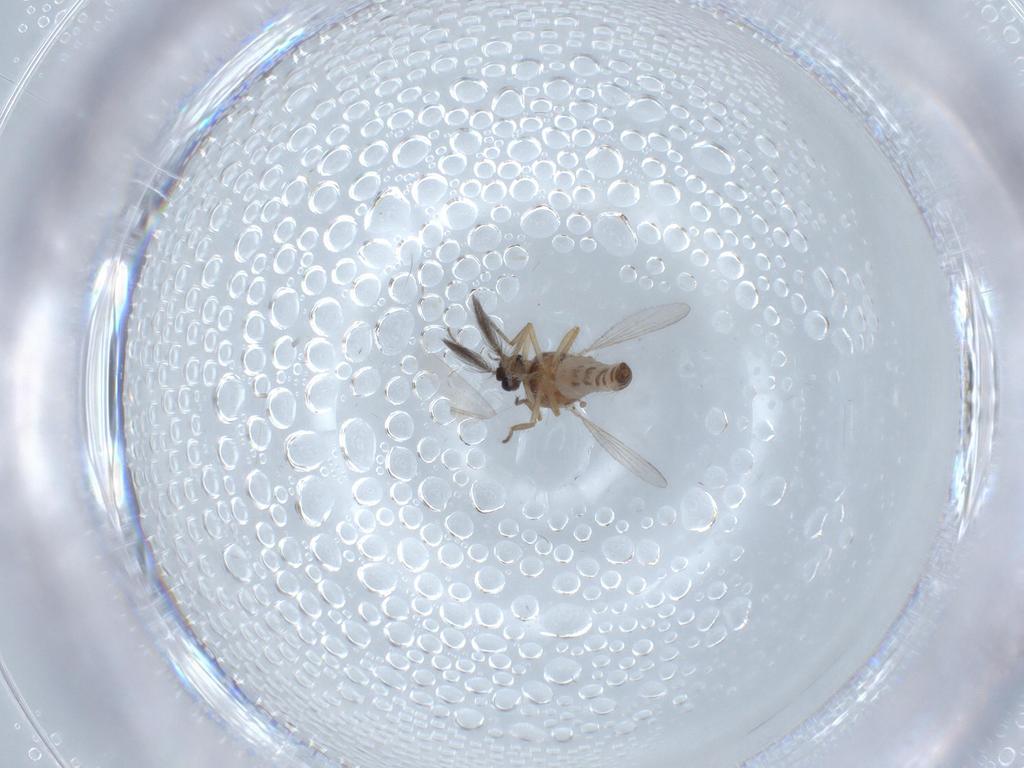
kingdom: Animalia
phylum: Arthropoda
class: Insecta
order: Diptera
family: Ceratopogonidae
